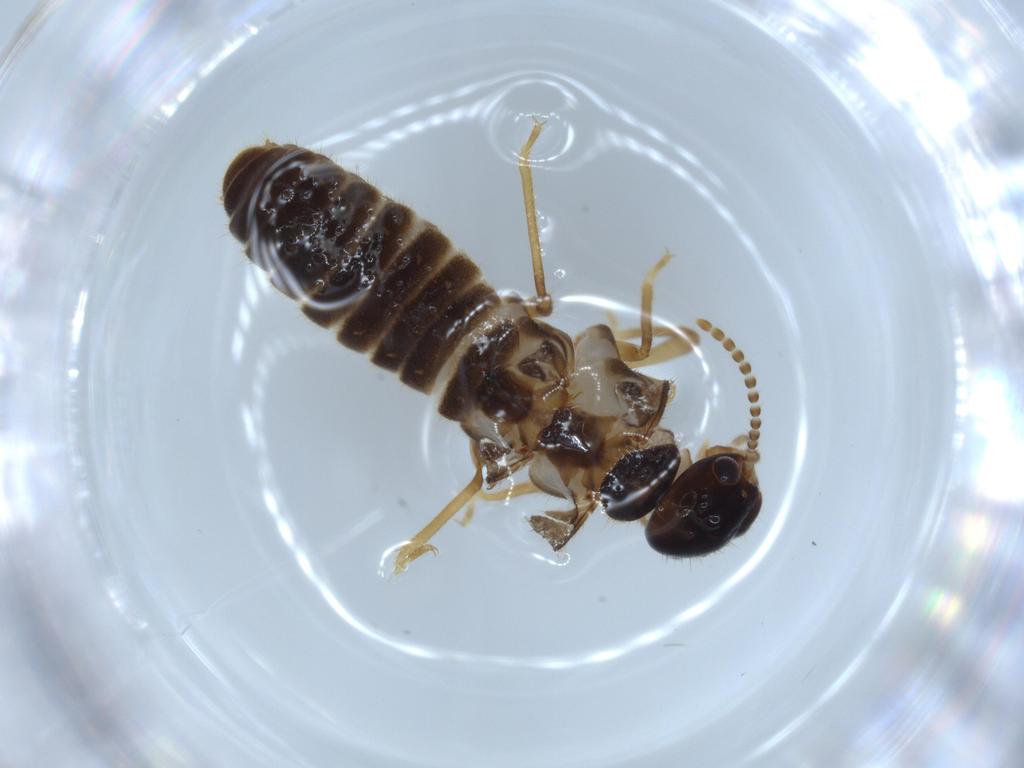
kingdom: Animalia
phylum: Arthropoda
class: Insecta
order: Blattodea
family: Termitidae
